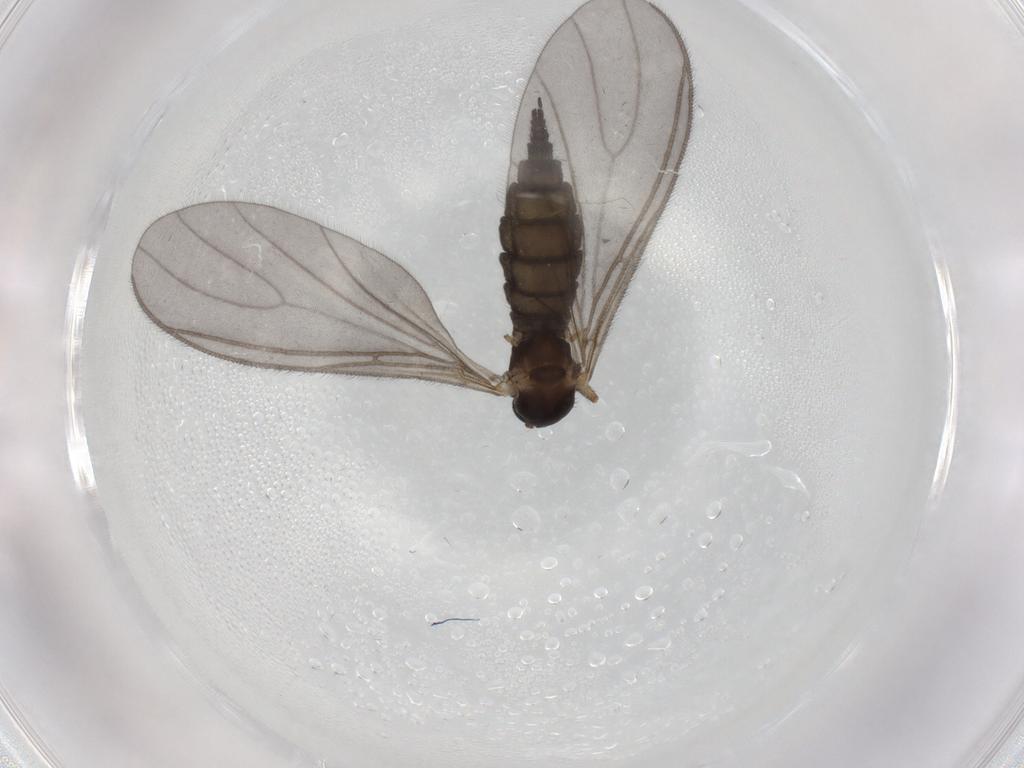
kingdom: Animalia
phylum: Arthropoda
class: Insecta
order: Diptera
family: Sciaridae
